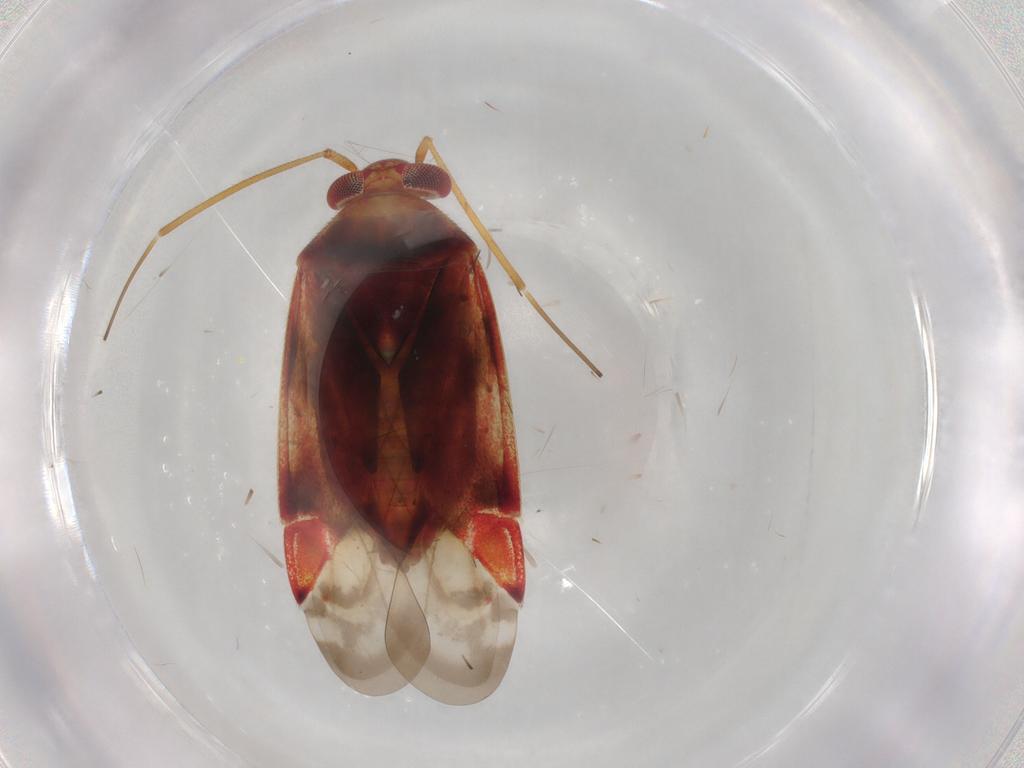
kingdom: Animalia
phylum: Arthropoda
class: Insecta
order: Hemiptera
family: Miridae
